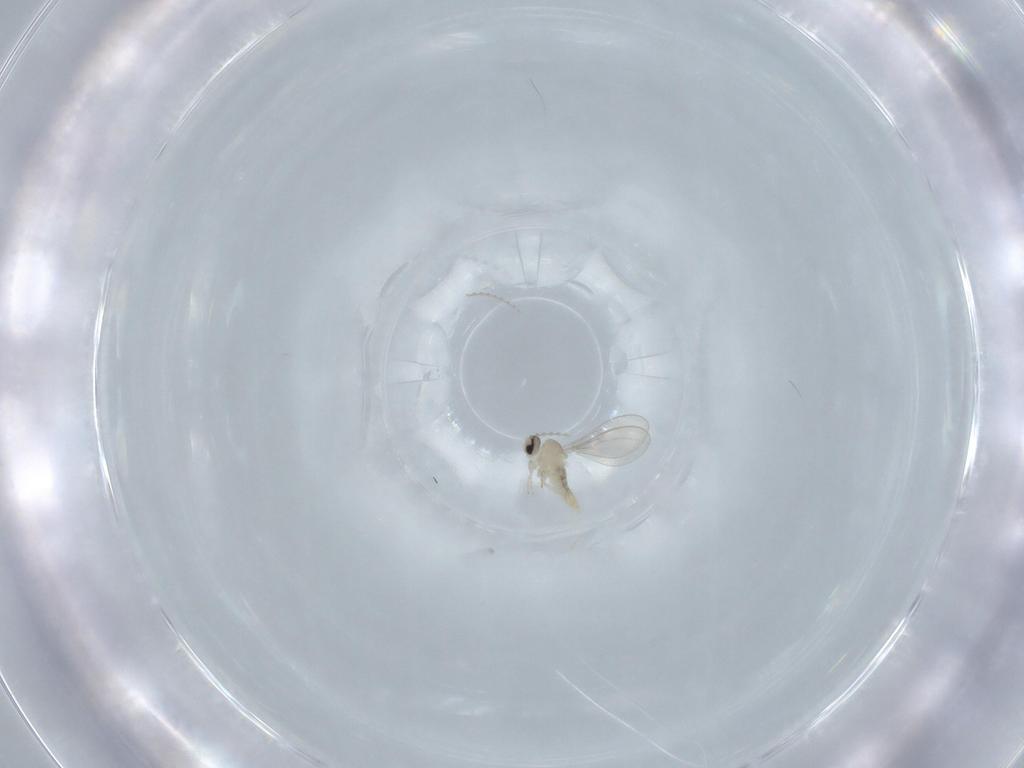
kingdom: Animalia
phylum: Arthropoda
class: Insecta
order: Diptera
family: Cecidomyiidae
